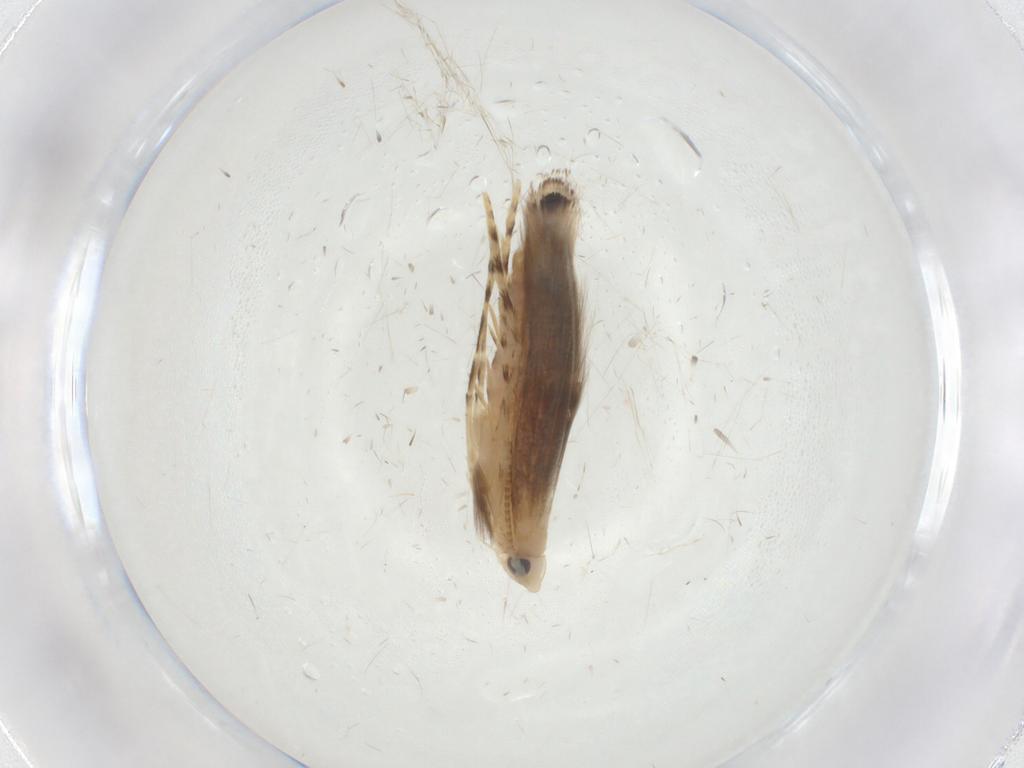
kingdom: Animalia
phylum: Arthropoda
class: Insecta
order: Lepidoptera
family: Gracillariidae
